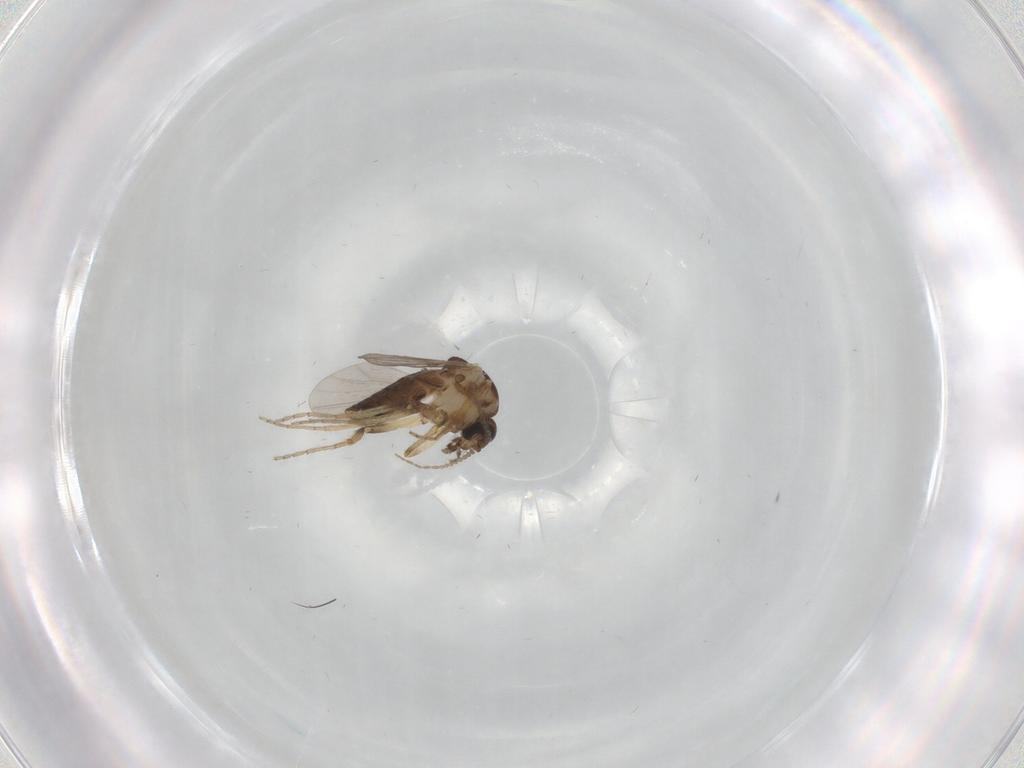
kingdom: Animalia
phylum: Arthropoda
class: Insecta
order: Diptera
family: Ceratopogonidae
